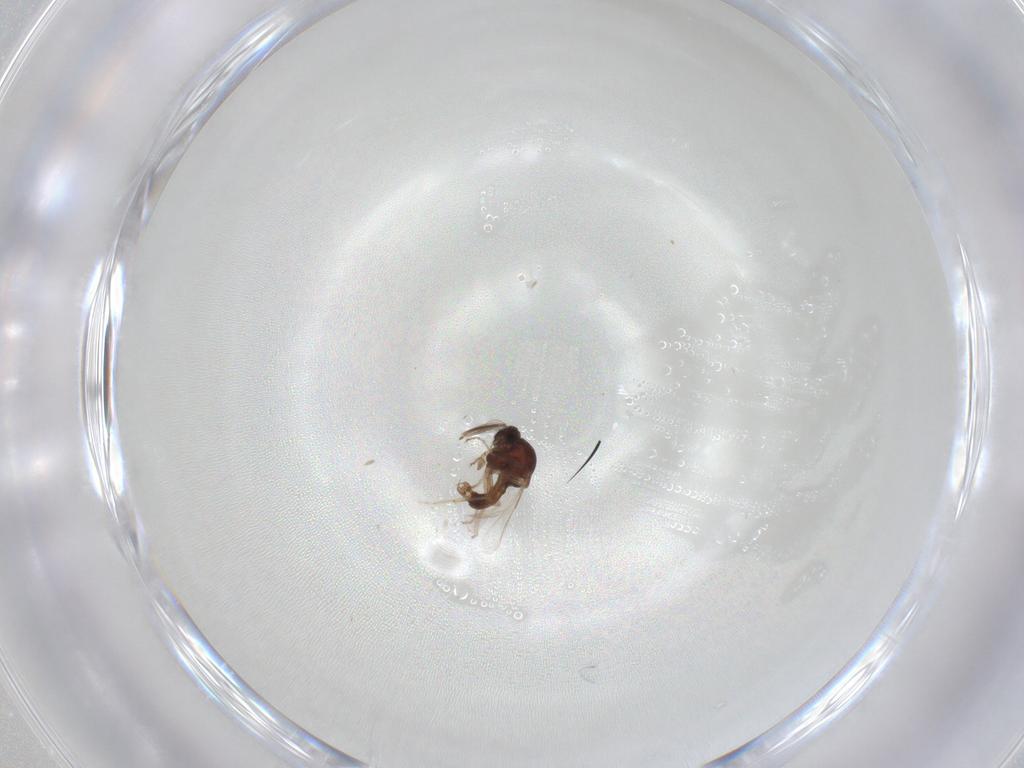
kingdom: Animalia
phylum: Arthropoda
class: Insecta
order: Diptera
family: Ceratopogonidae
